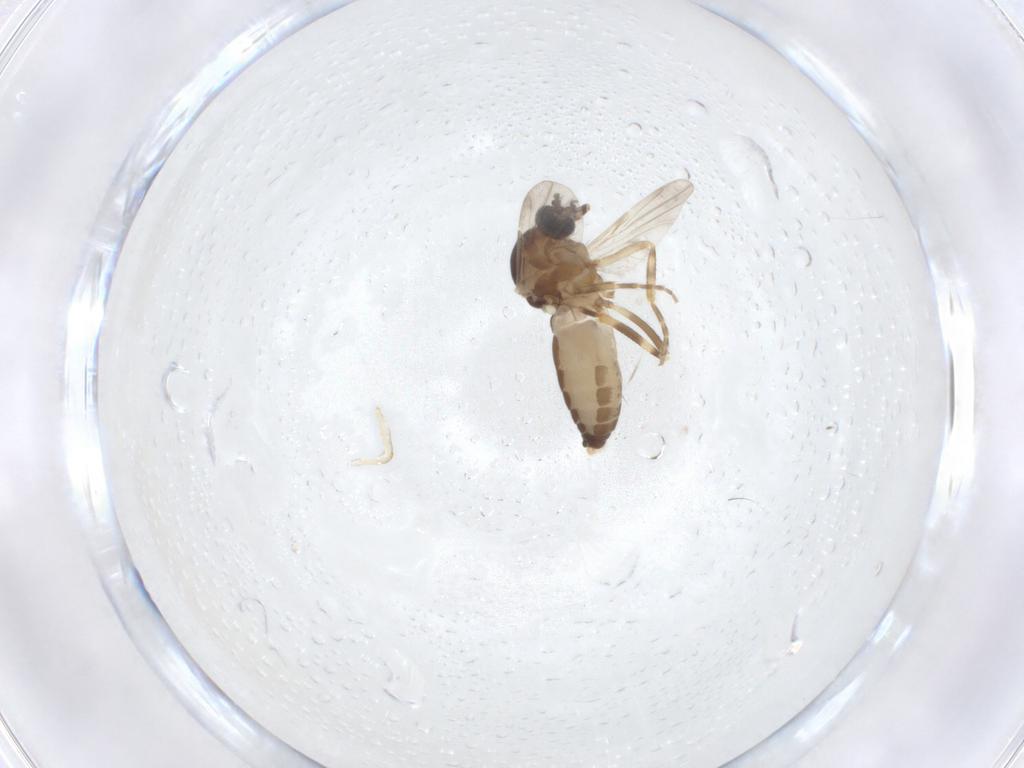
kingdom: Animalia
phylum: Arthropoda
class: Insecta
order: Diptera
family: Ceratopogonidae
